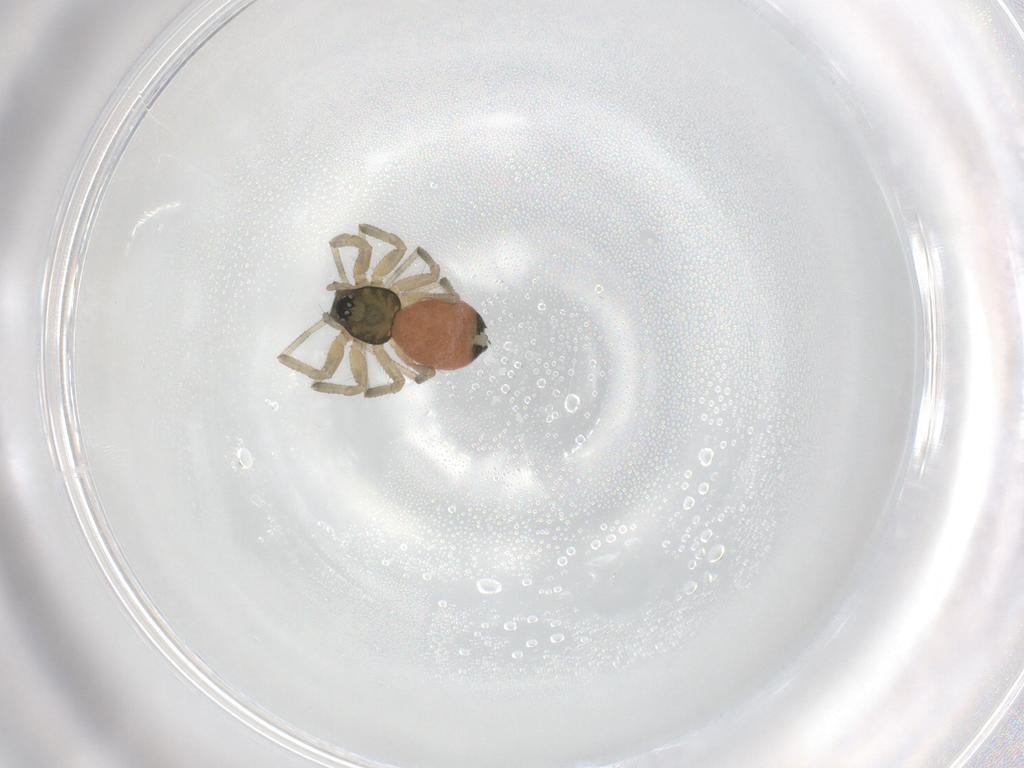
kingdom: Animalia
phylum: Arthropoda
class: Arachnida
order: Araneae
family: Linyphiidae
